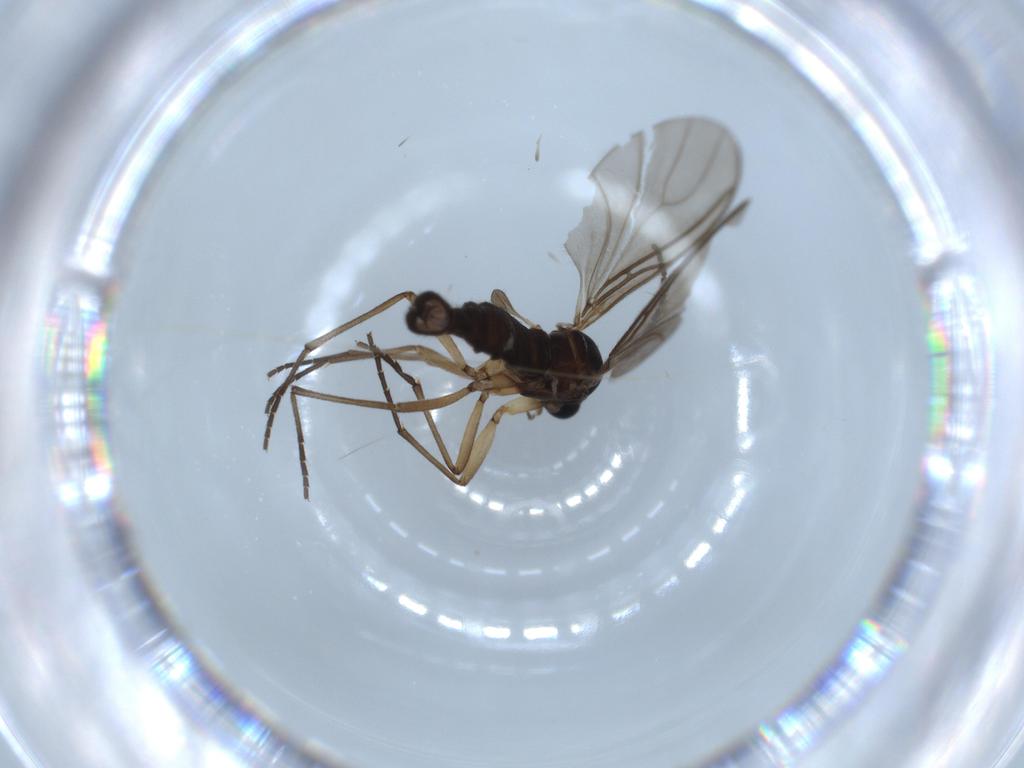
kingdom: Animalia
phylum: Arthropoda
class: Insecta
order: Diptera
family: Sciaridae
